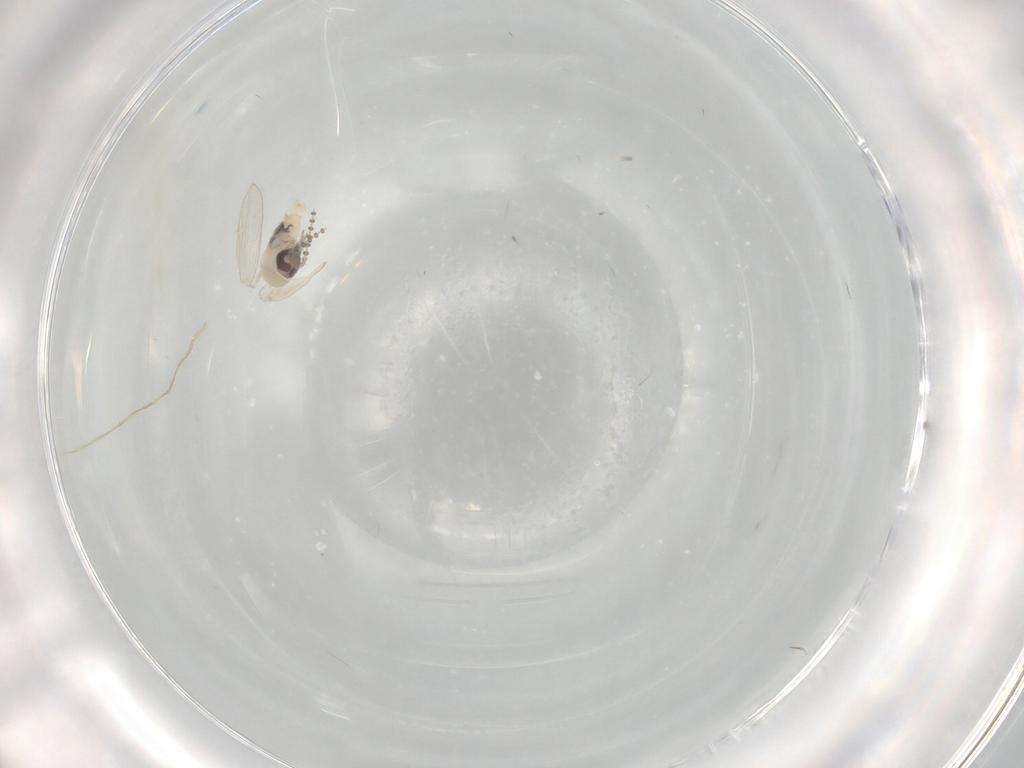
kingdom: Animalia
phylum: Arthropoda
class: Insecta
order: Diptera
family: Psychodidae
